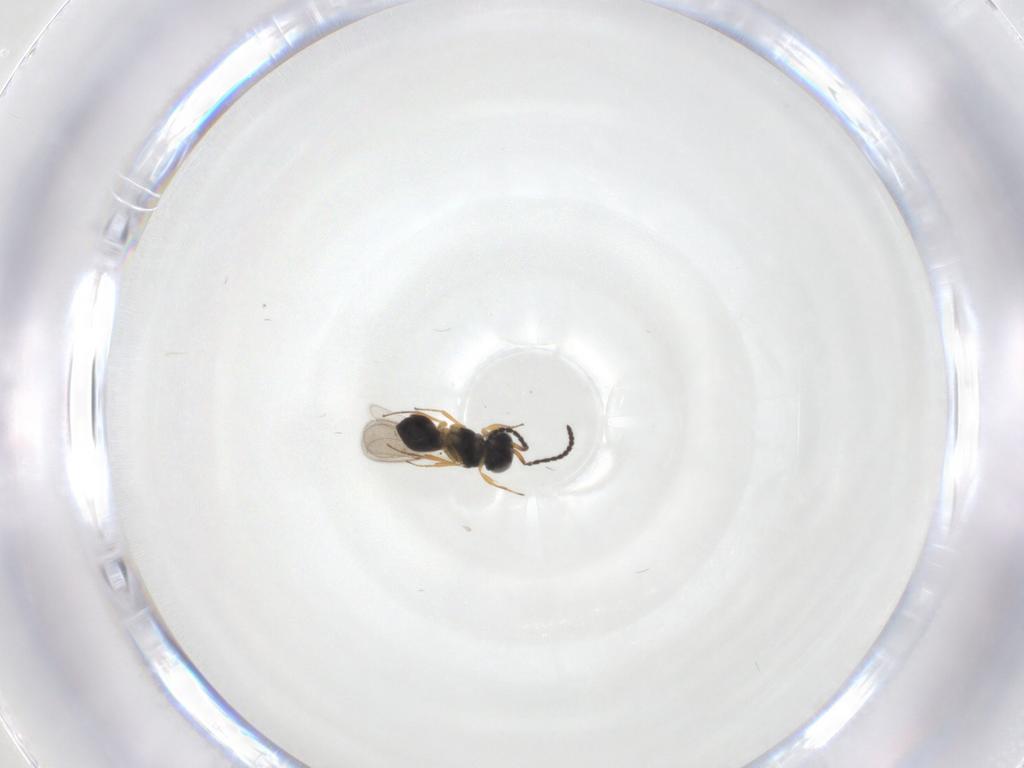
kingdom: Animalia
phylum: Arthropoda
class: Insecta
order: Hymenoptera
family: Scelionidae
